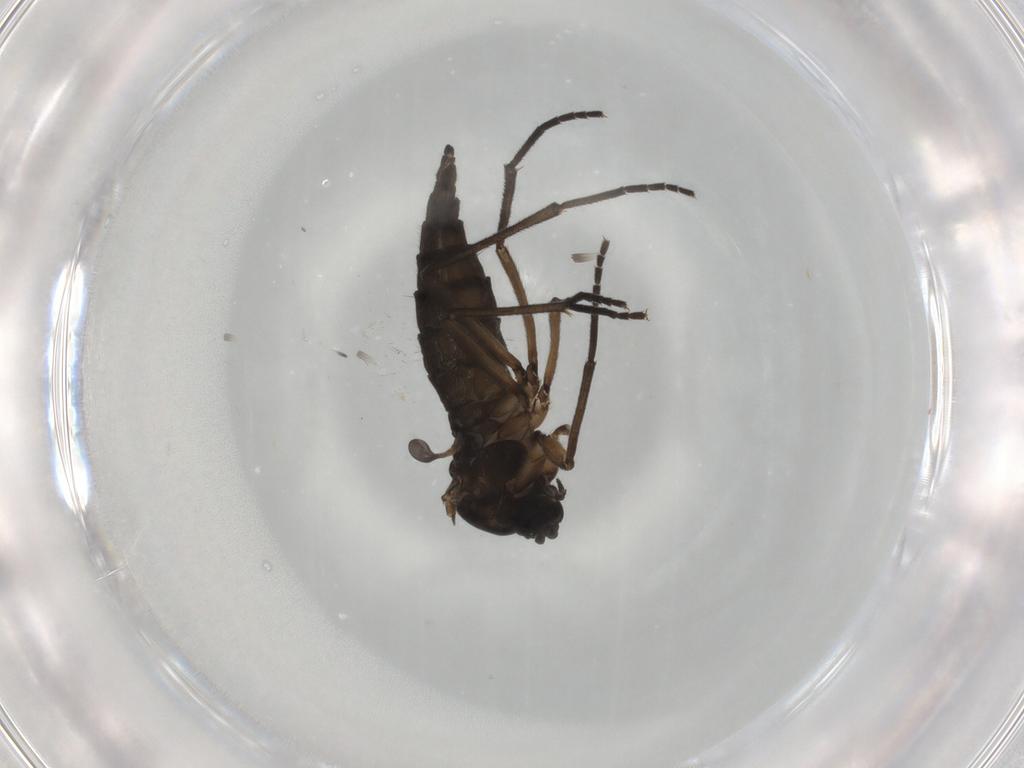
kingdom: Animalia
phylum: Arthropoda
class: Insecta
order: Diptera
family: Sciaridae
